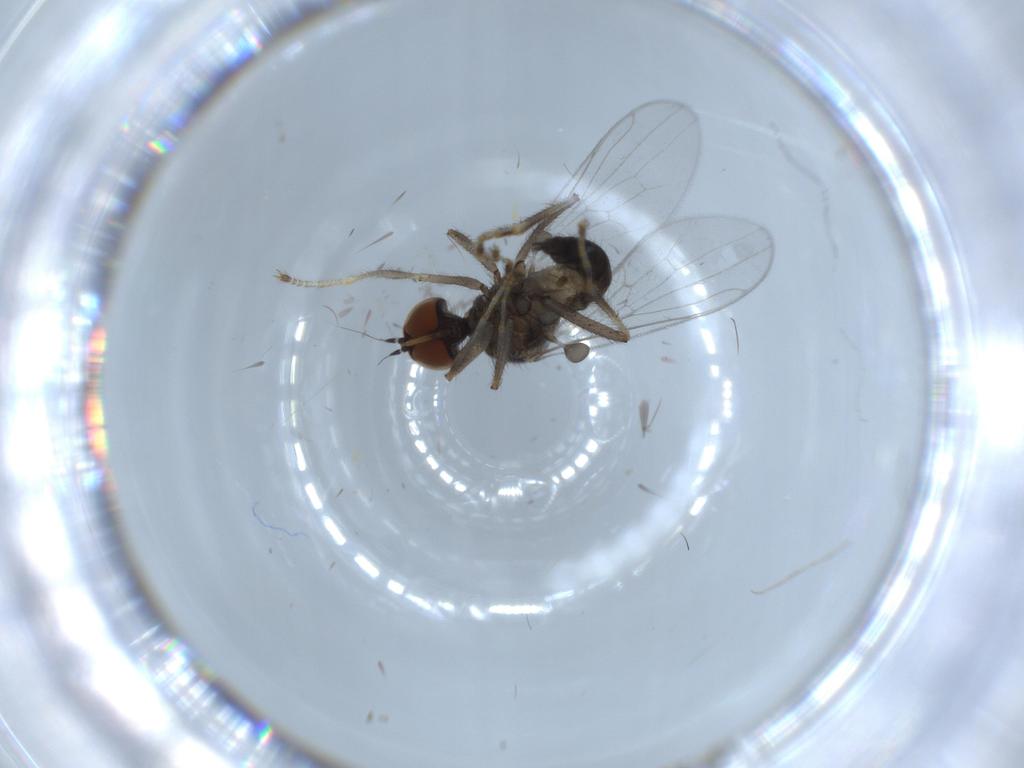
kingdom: Animalia
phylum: Arthropoda
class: Insecta
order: Diptera
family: Hybotidae
